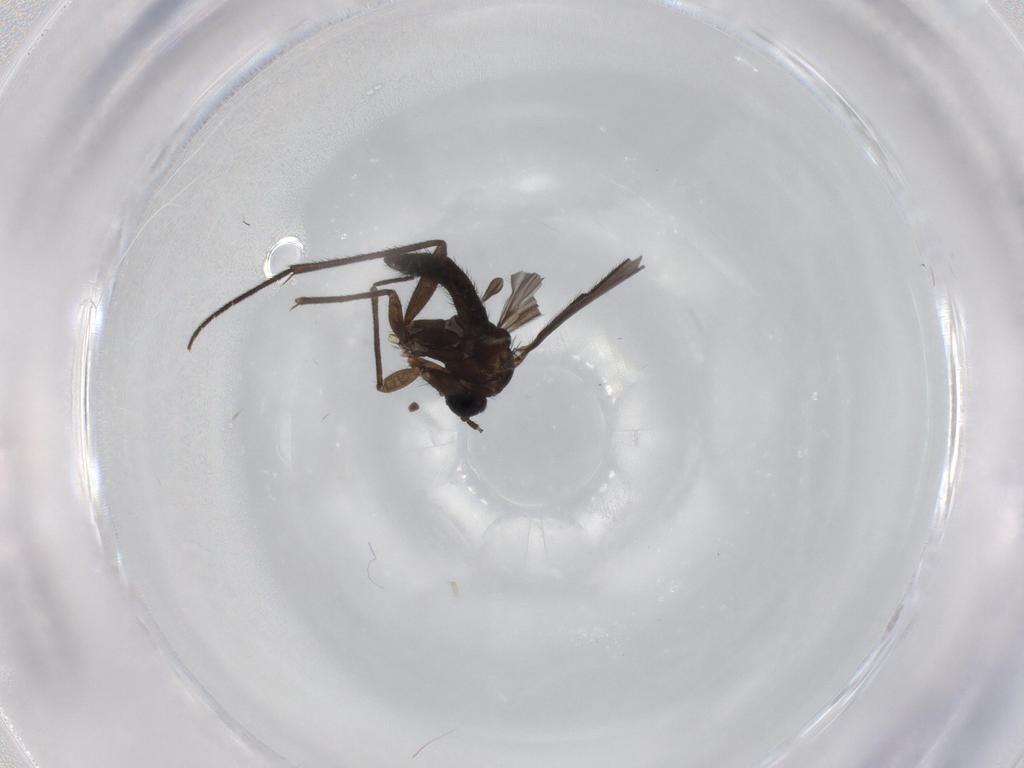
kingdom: Animalia
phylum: Arthropoda
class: Insecta
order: Diptera
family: Sciaridae
